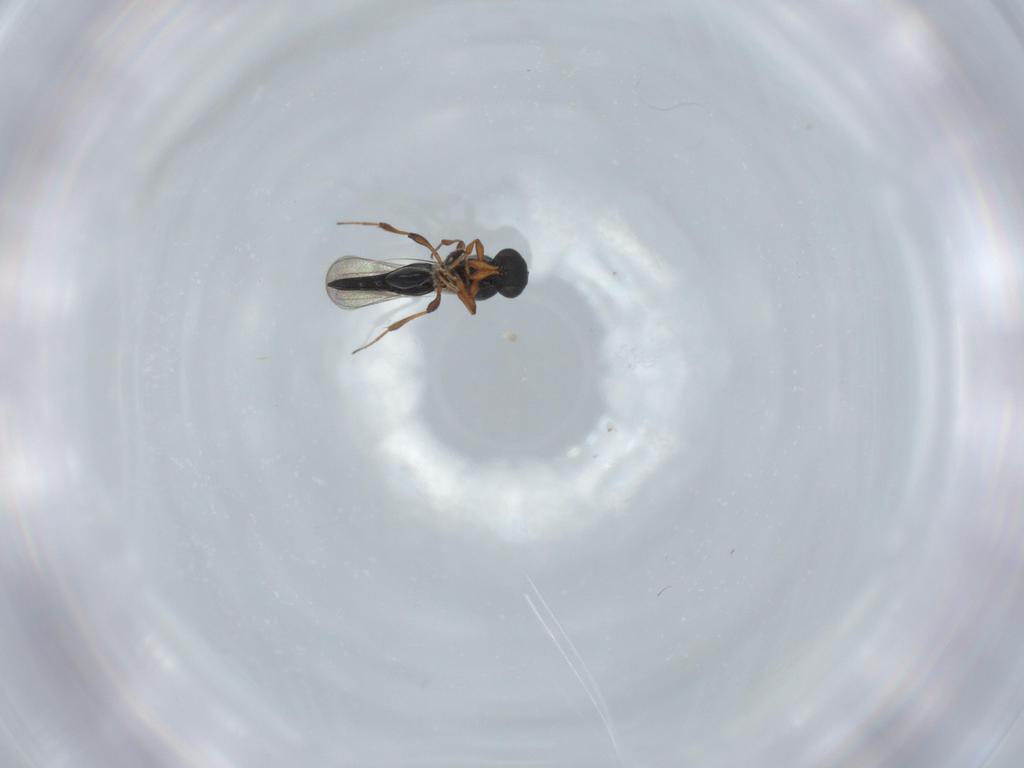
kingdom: Animalia
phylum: Arthropoda
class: Insecta
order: Hymenoptera
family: Platygastridae
